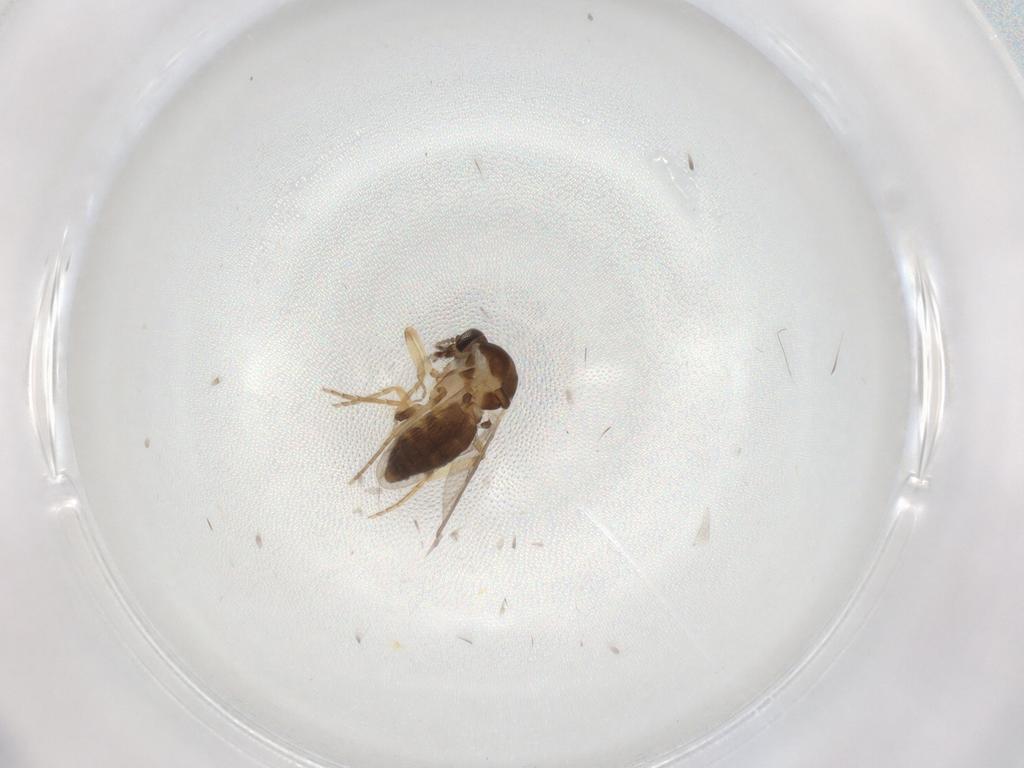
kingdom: Animalia
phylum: Arthropoda
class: Insecta
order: Diptera
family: Ceratopogonidae
